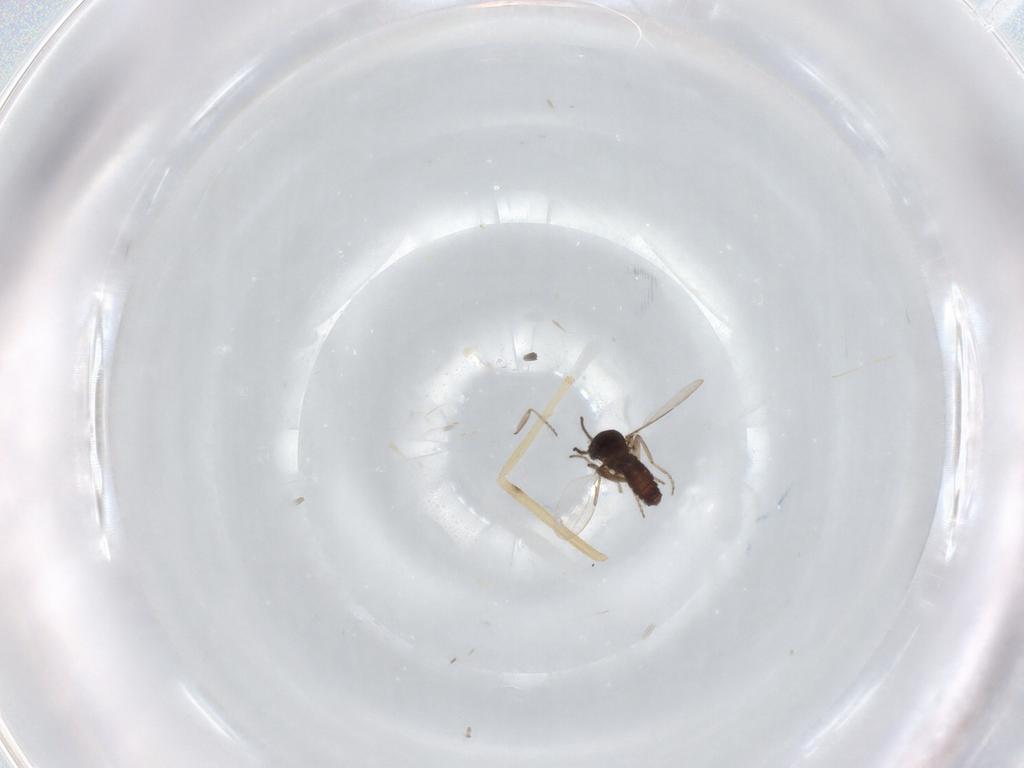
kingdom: Animalia
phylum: Arthropoda
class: Insecta
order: Diptera
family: Ceratopogonidae
